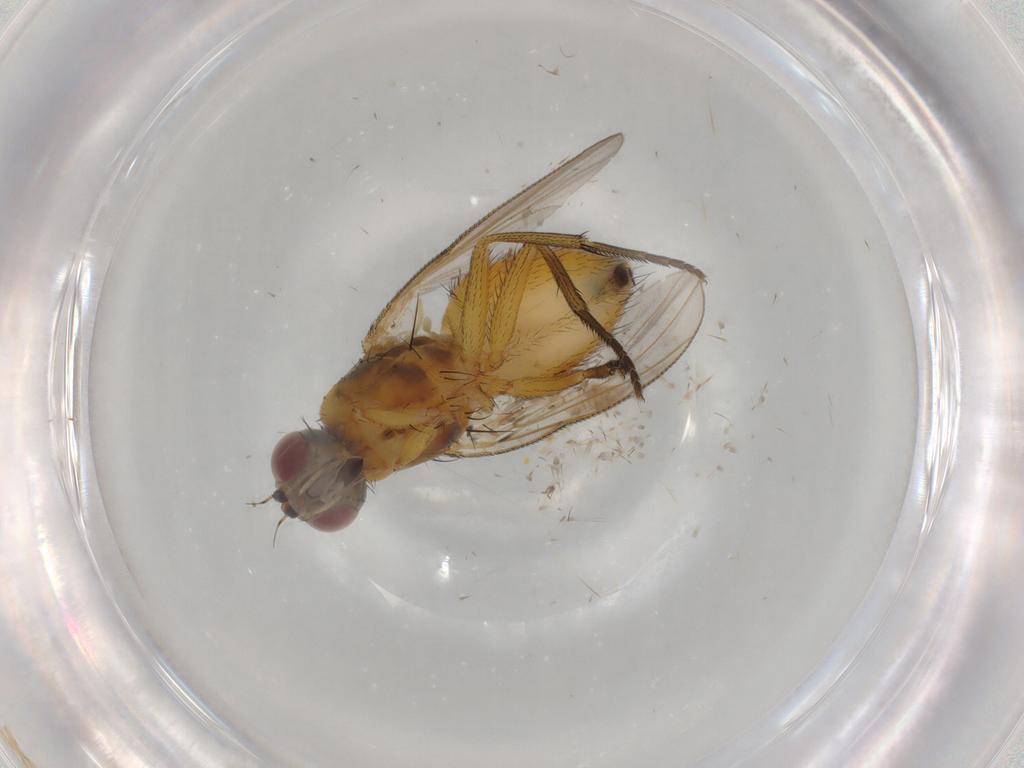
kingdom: Animalia
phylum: Arthropoda
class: Insecta
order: Diptera
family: Muscidae
